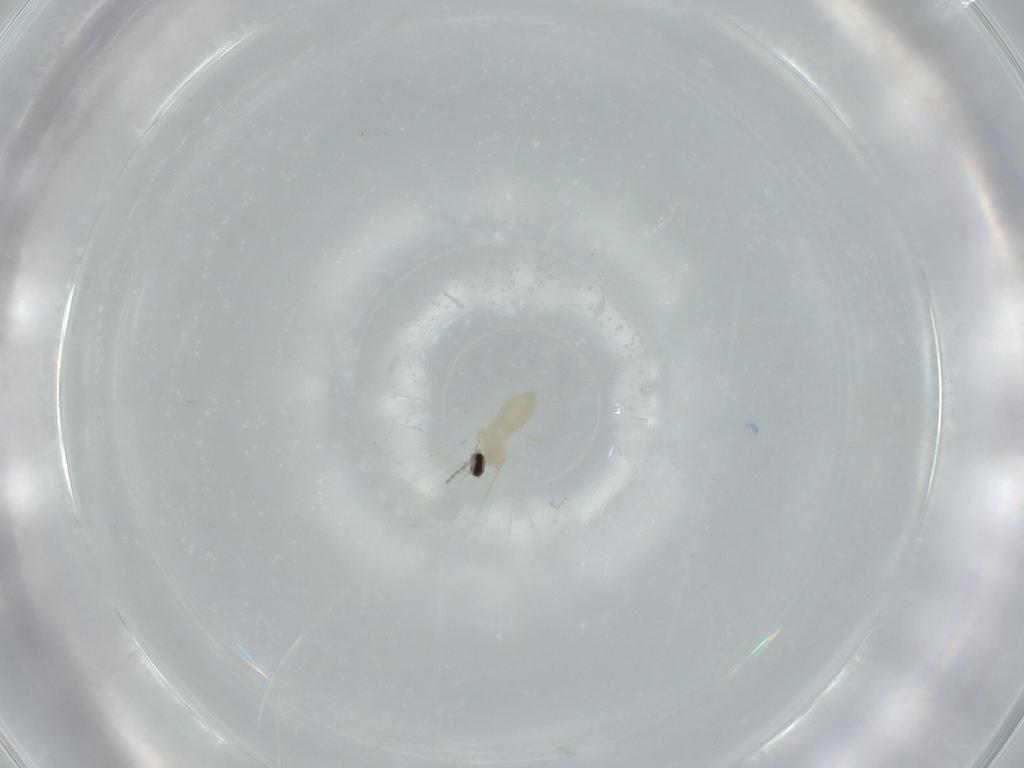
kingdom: Animalia
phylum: Arthropoda
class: Insecta
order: Diptera
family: Cecidomyiidae
